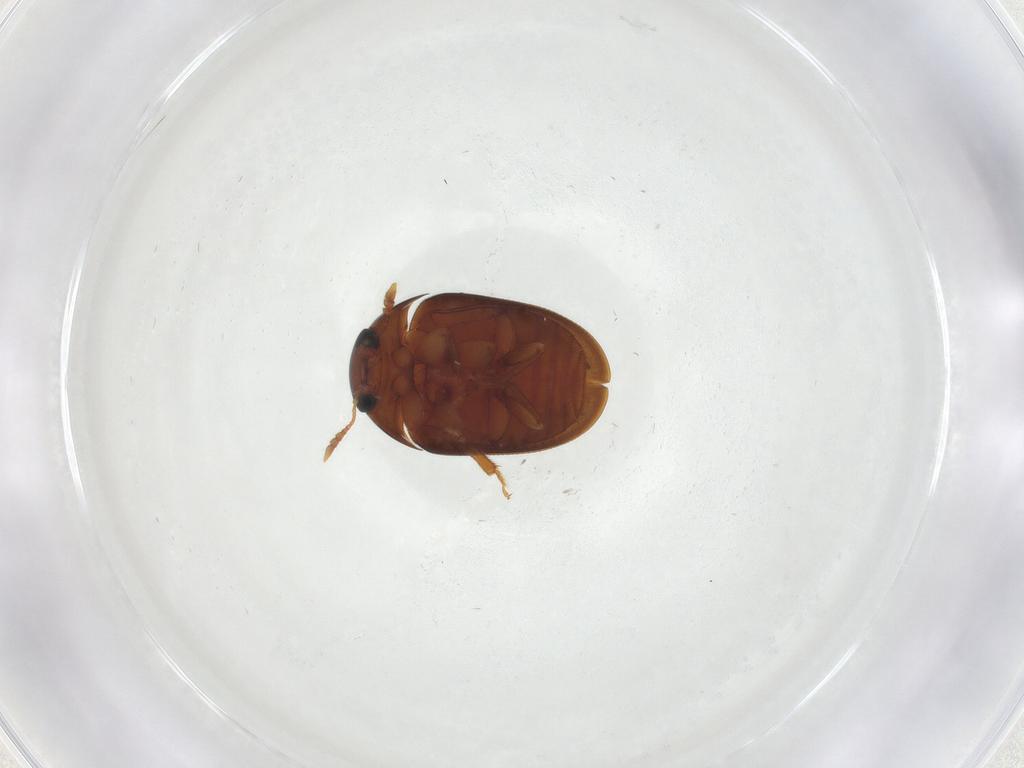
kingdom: Animalia
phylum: Arthropoda
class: Insecta
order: Coleoptera
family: Phalacridae
